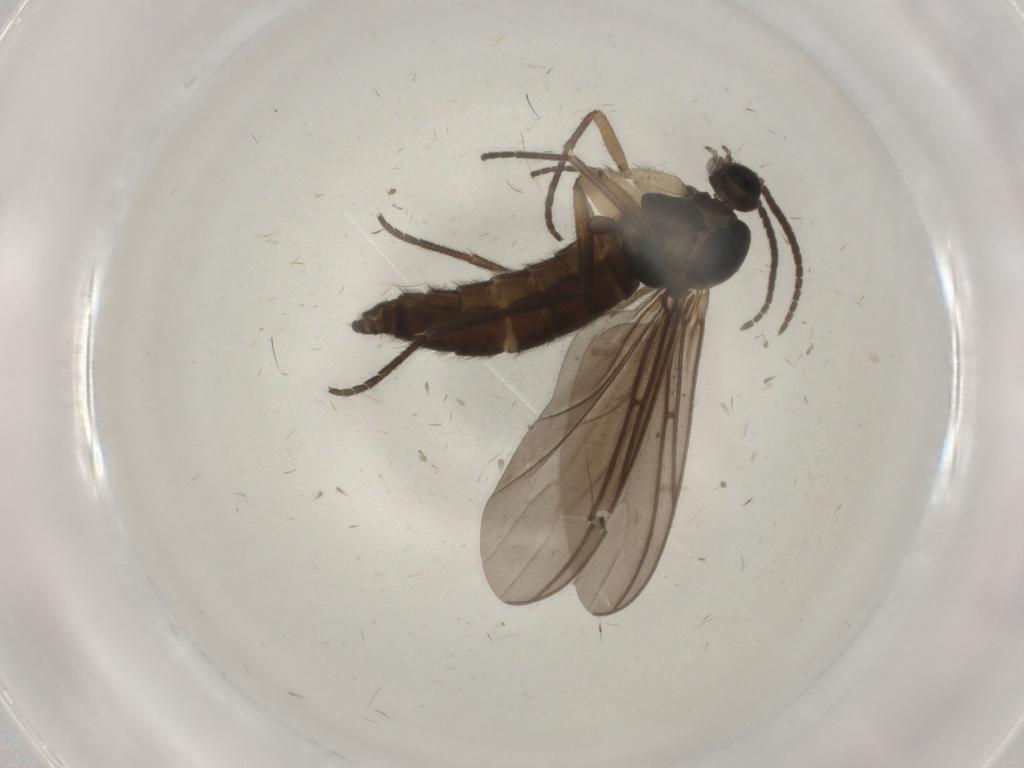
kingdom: Animalia
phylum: Arthropoda
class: Insecta
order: Diptera
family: Sciaridae
